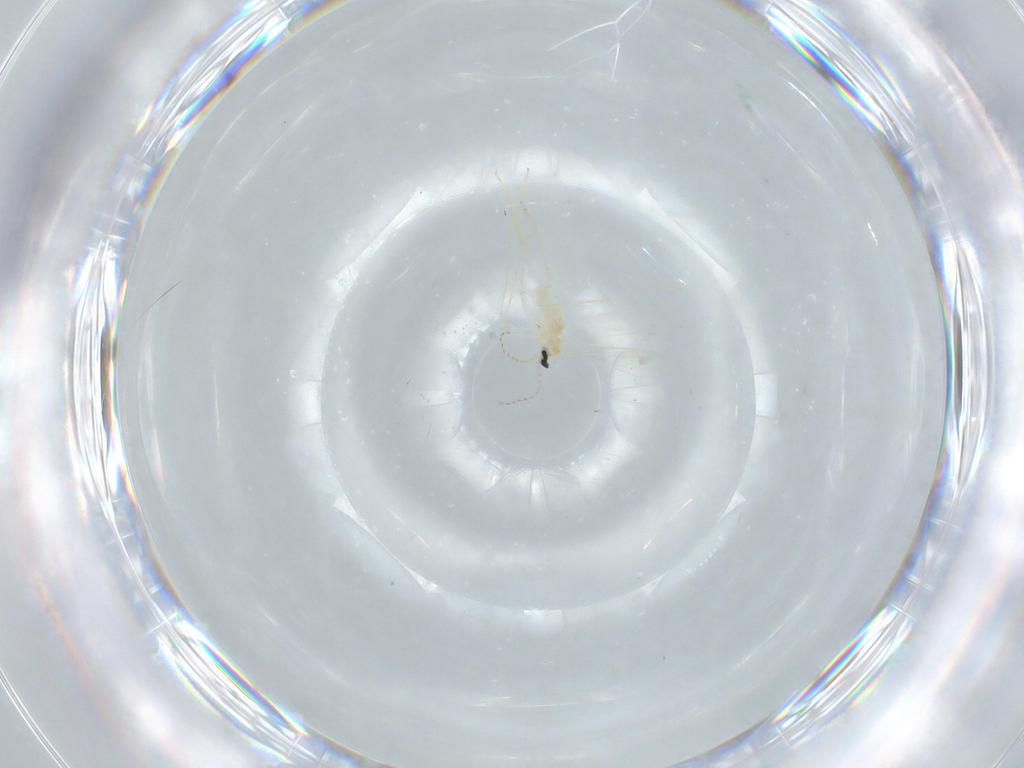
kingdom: Animalia
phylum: Arthropoda
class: Insecta
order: Diptera
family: Cecidomyiidae
